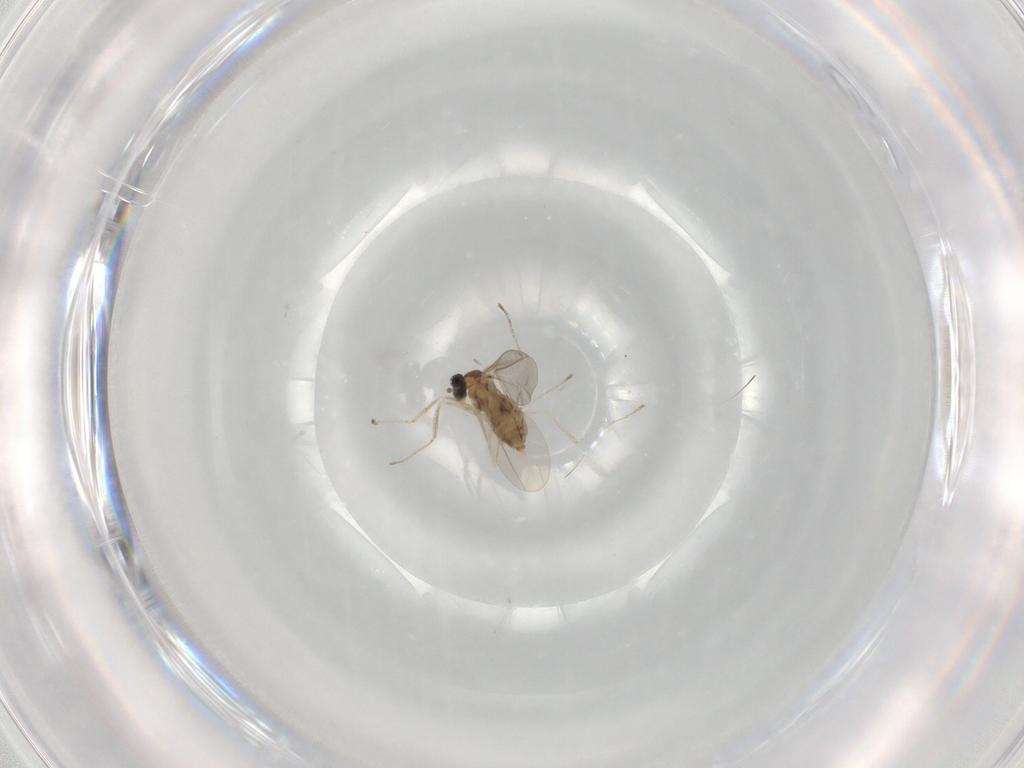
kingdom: Animalia
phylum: Arthropoda
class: Insecta
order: Diptera
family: Cecidomyiidae
